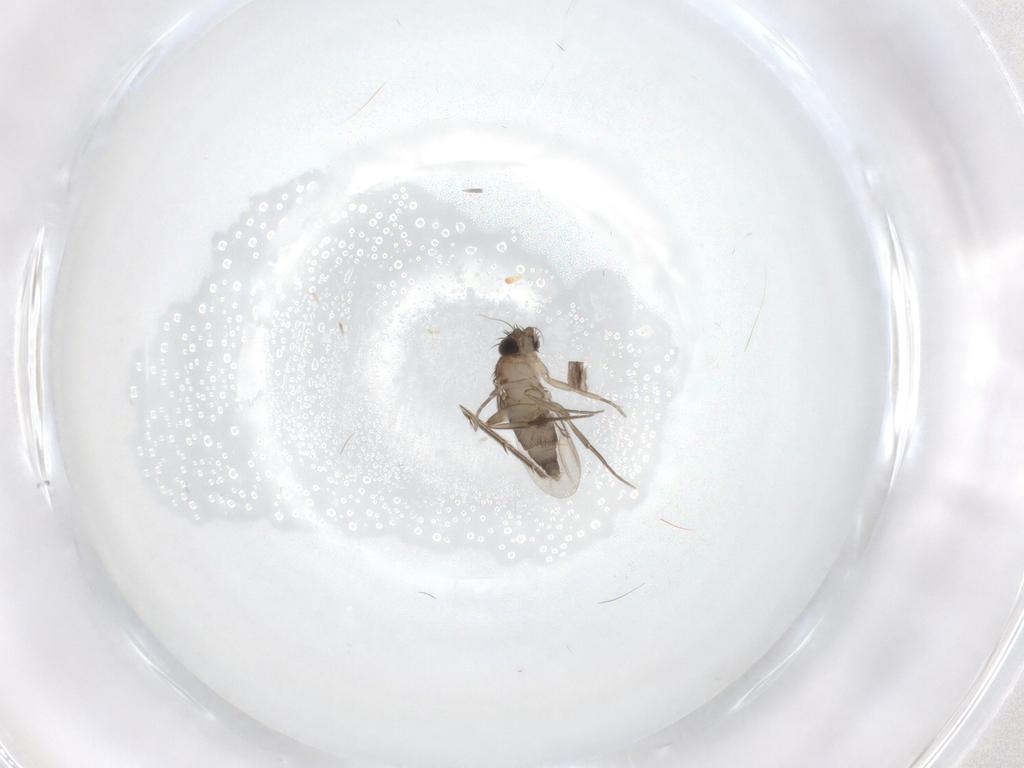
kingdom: Animalia
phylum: Arthropoda
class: Insecta
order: Diptera
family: Phoridae
